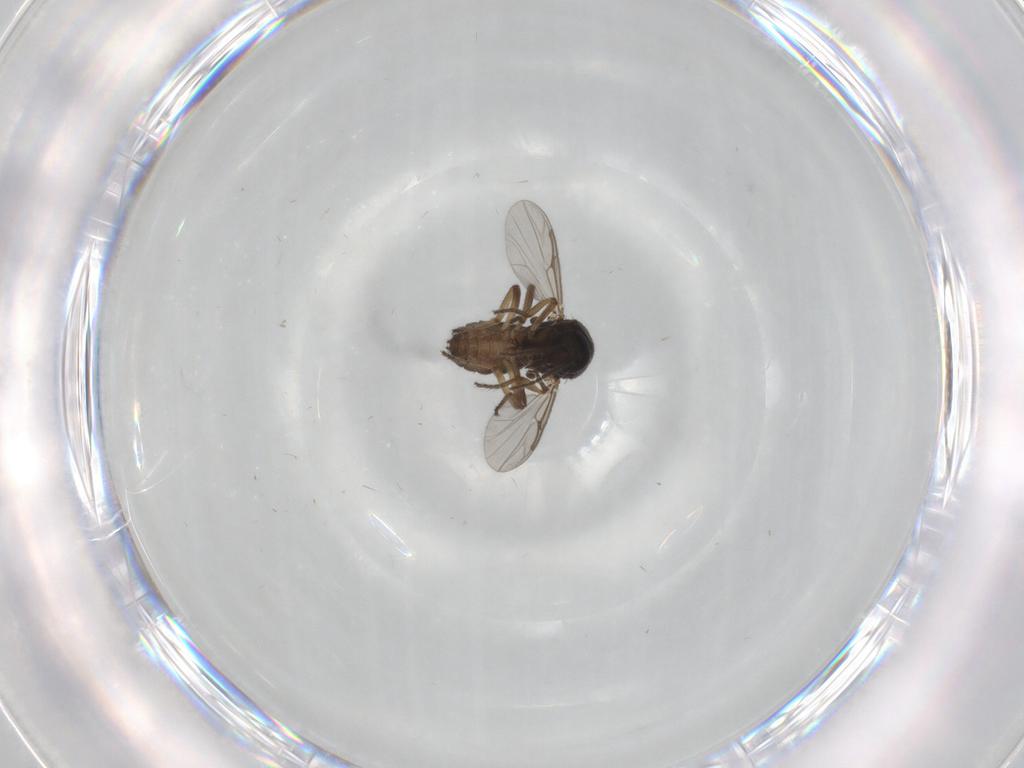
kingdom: Animalia
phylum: Arthropoda
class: Insecta
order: Diptera
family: Ceratopogonidae
